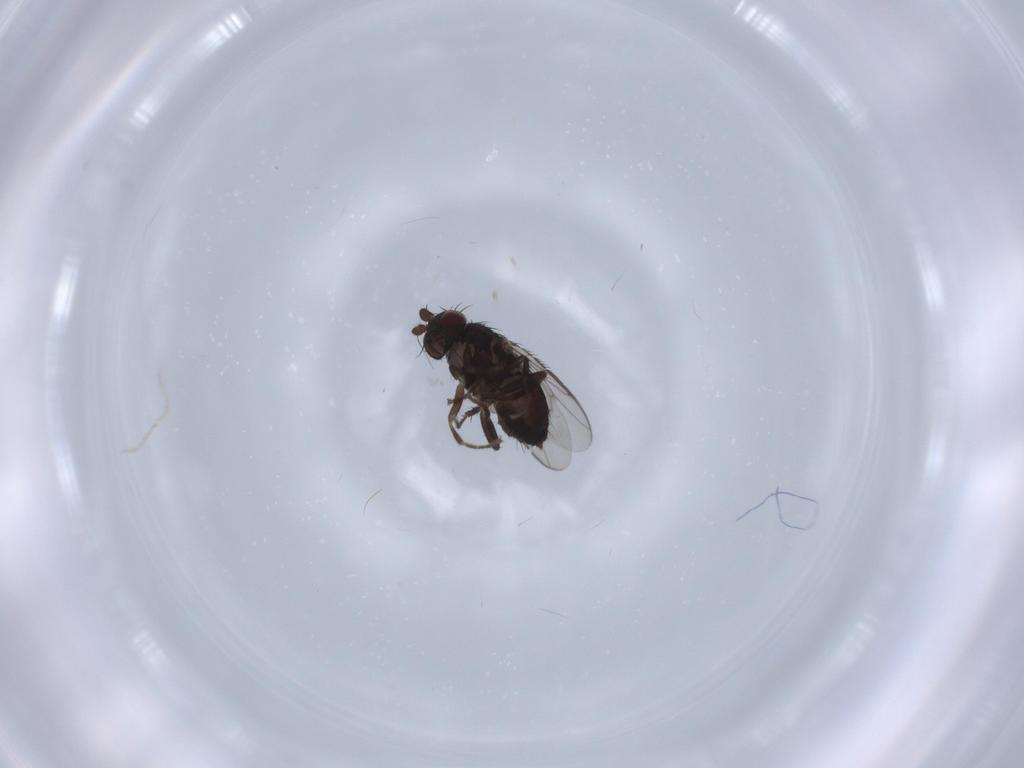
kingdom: Animalia
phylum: Arthropoda
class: Insecta
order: Diptera
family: Sphaeroceridae
